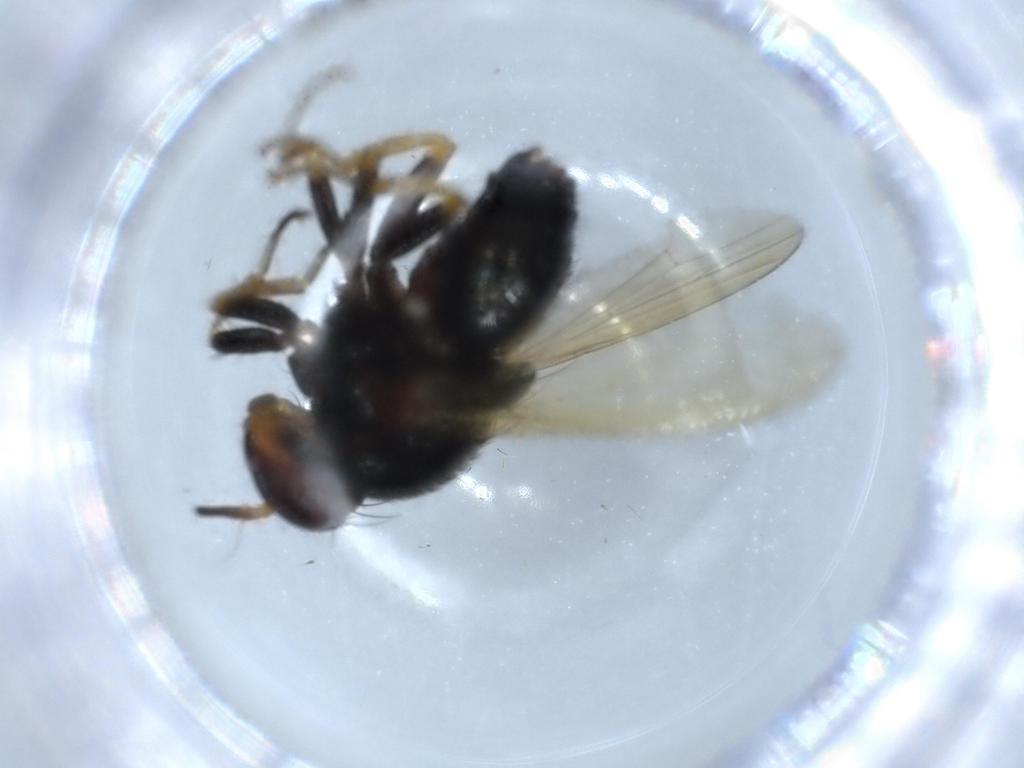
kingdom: Animalia
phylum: Arthropoda
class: Insecta
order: Diptera
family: Cecidomyiidae
